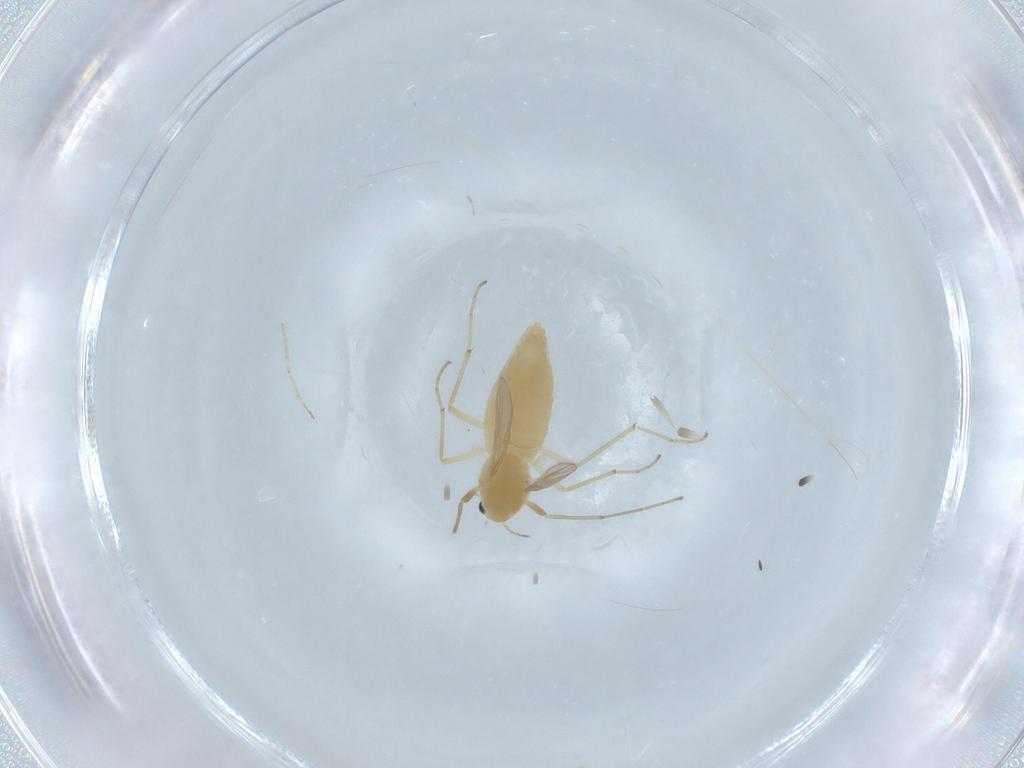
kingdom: Animalia
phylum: Arthropoda
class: Insecta
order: Diptera
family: Chironomidae
